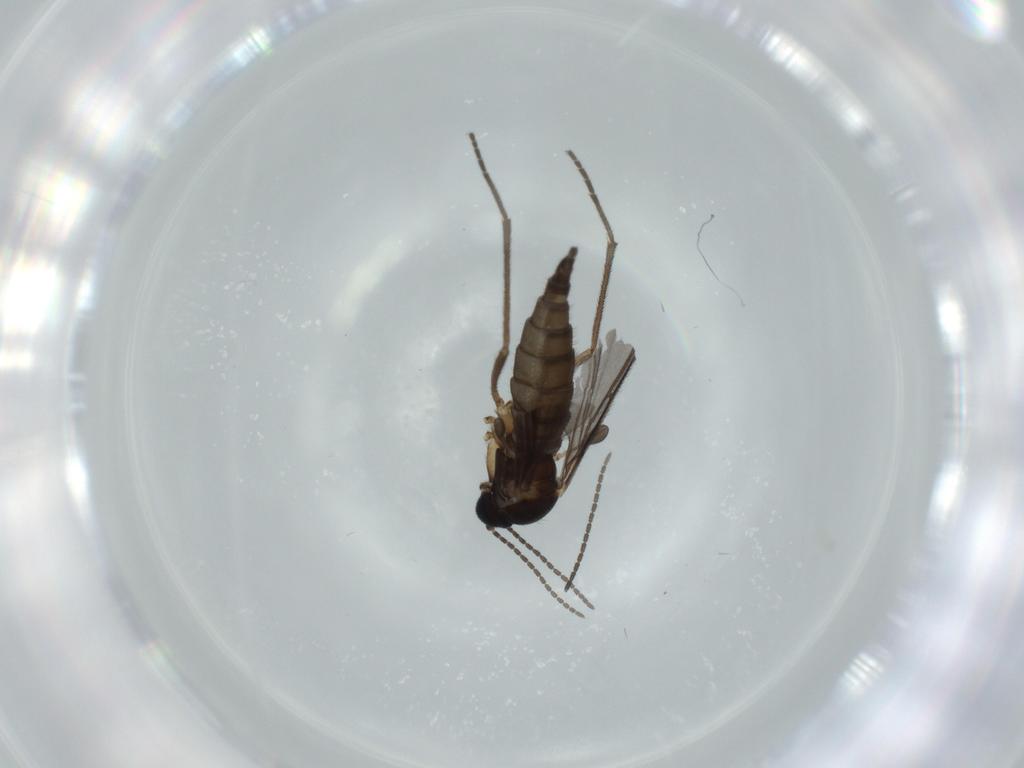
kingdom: Animalia
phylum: Arthropoda
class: Insecta
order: Diptera
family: Sciaridae
